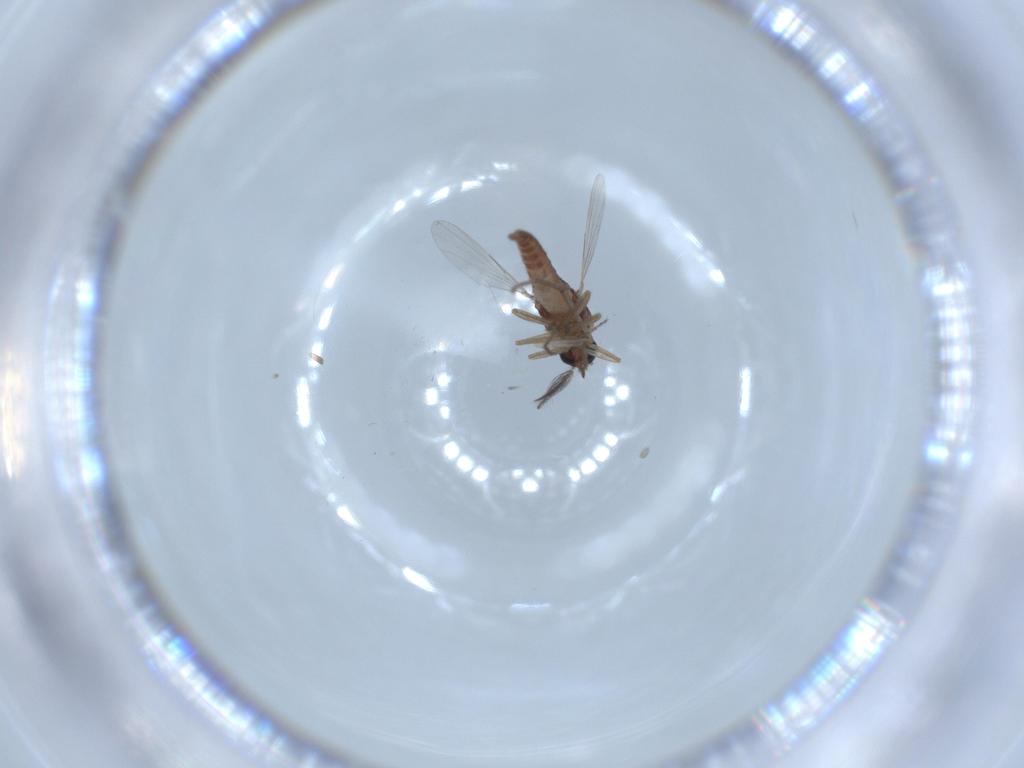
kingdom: Animalia
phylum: Arthropoda
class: Insecta
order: Diptera
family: Chironomidae
